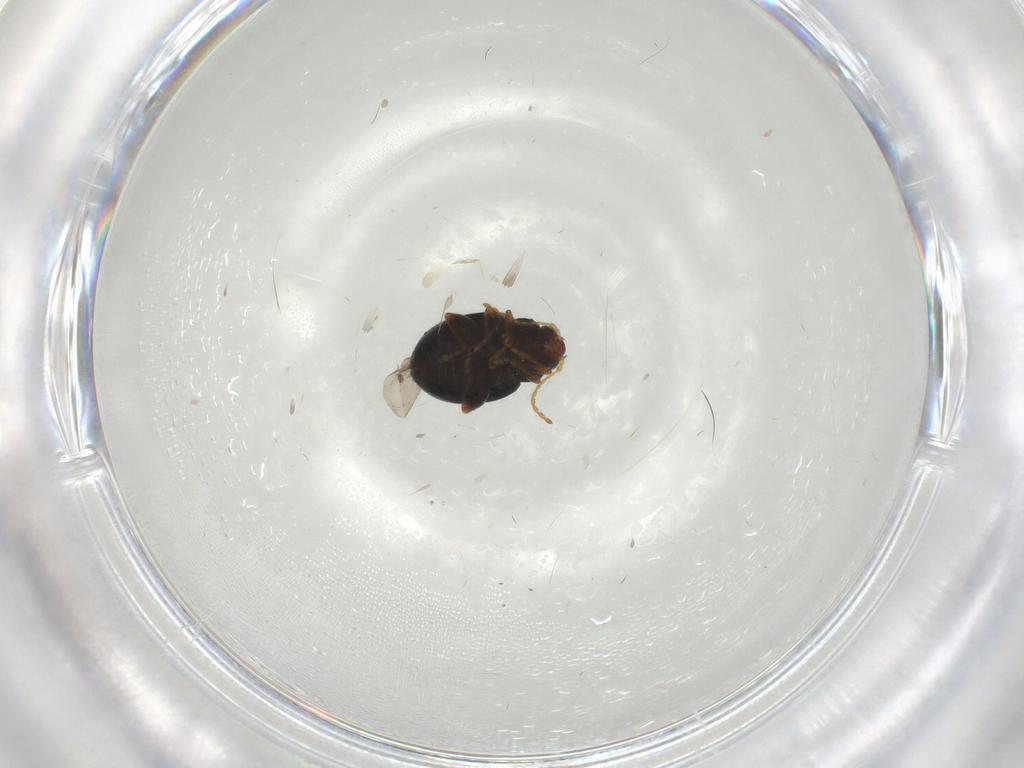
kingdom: Animalia
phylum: Arthropoda
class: Insecta
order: Coleoptera
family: Chrysomelidae
